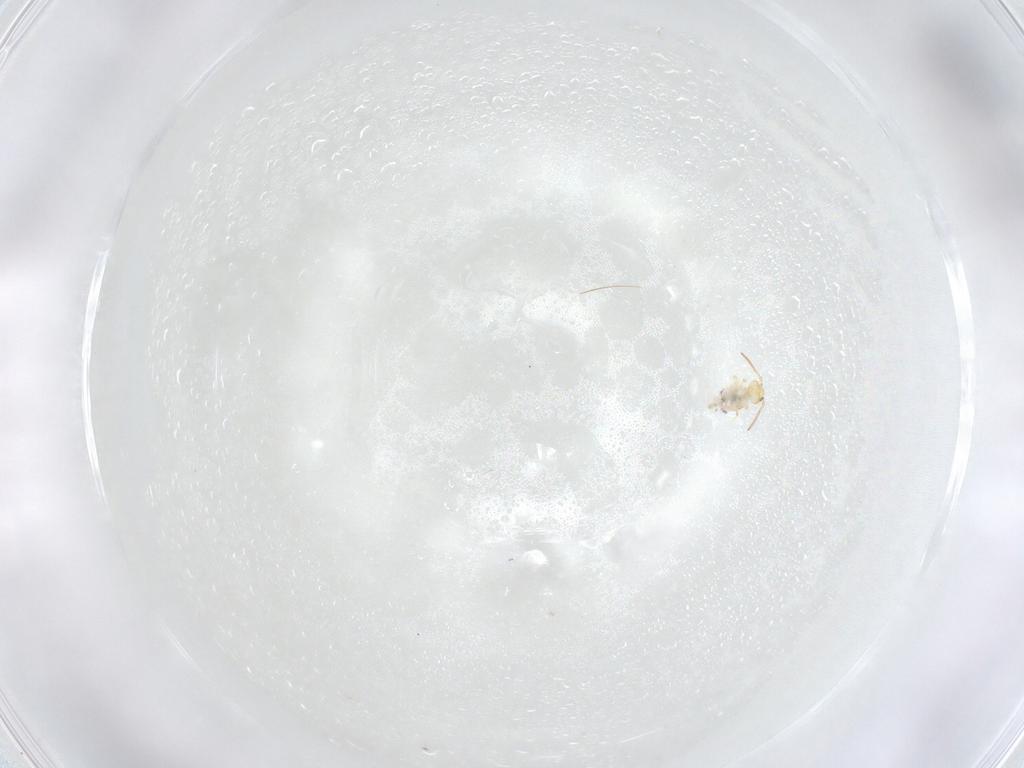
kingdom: Animalia
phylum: Arthropoda
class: Collembola
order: Symphypleona
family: Bourletiellidae
